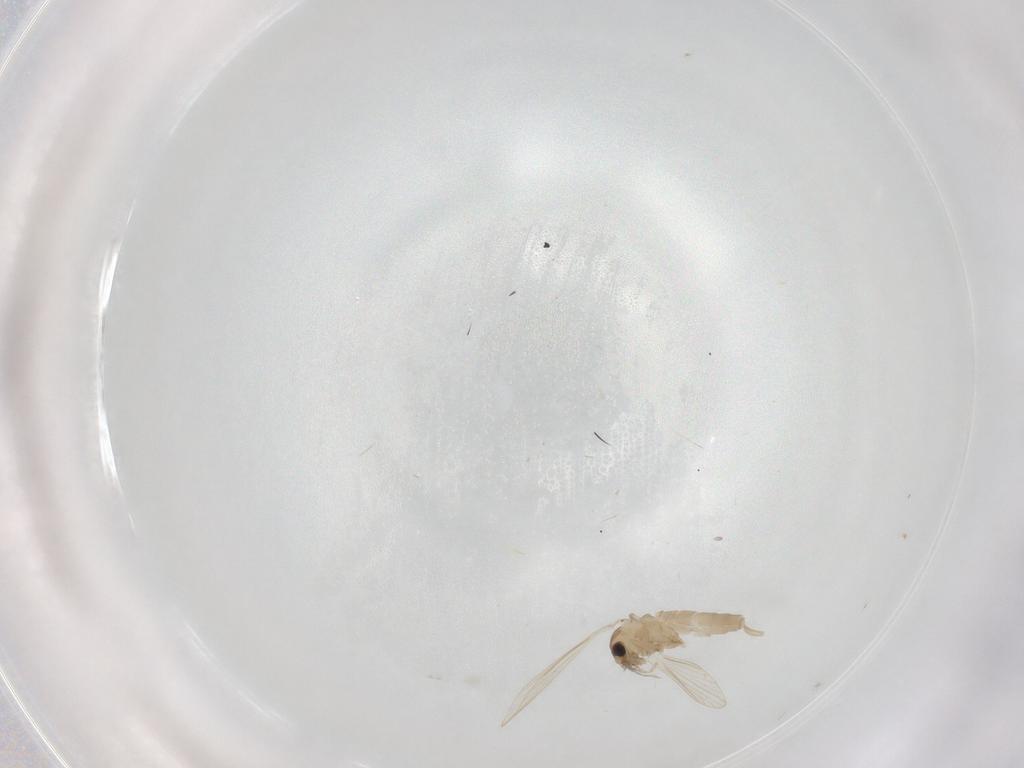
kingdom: Animalia
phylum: Arthropoda
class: Insecta
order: Diptera
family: Psychodidae
